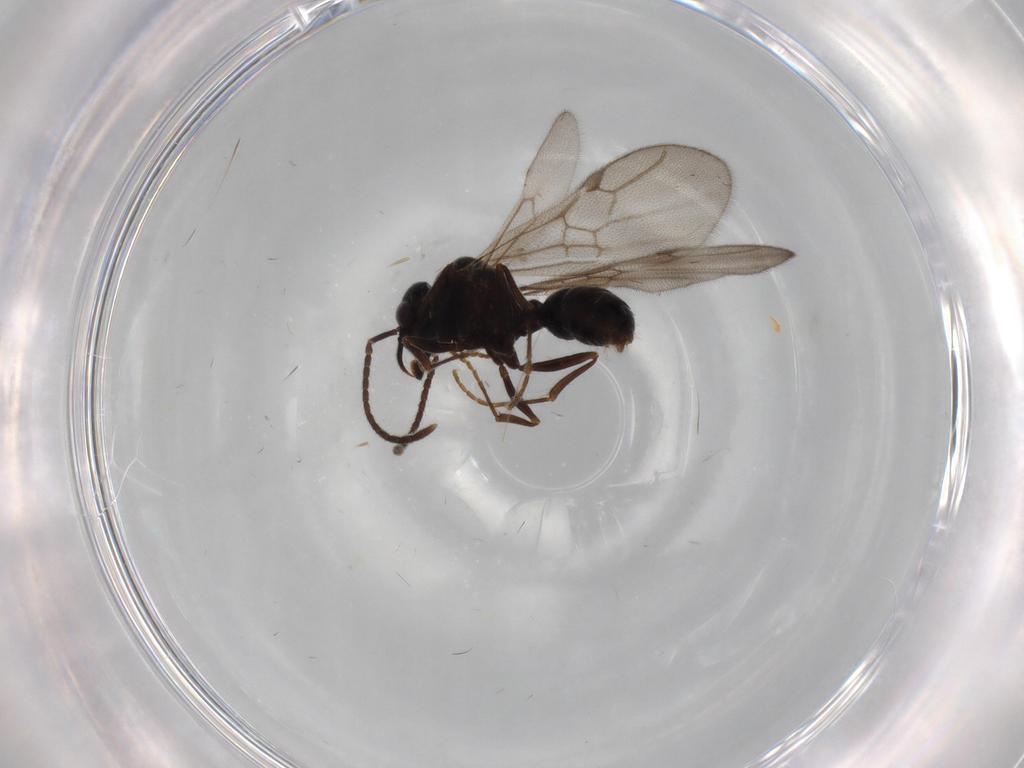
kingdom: Animalia
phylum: Arthropoda
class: Insecta
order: Hymenoptera
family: Formicidae
